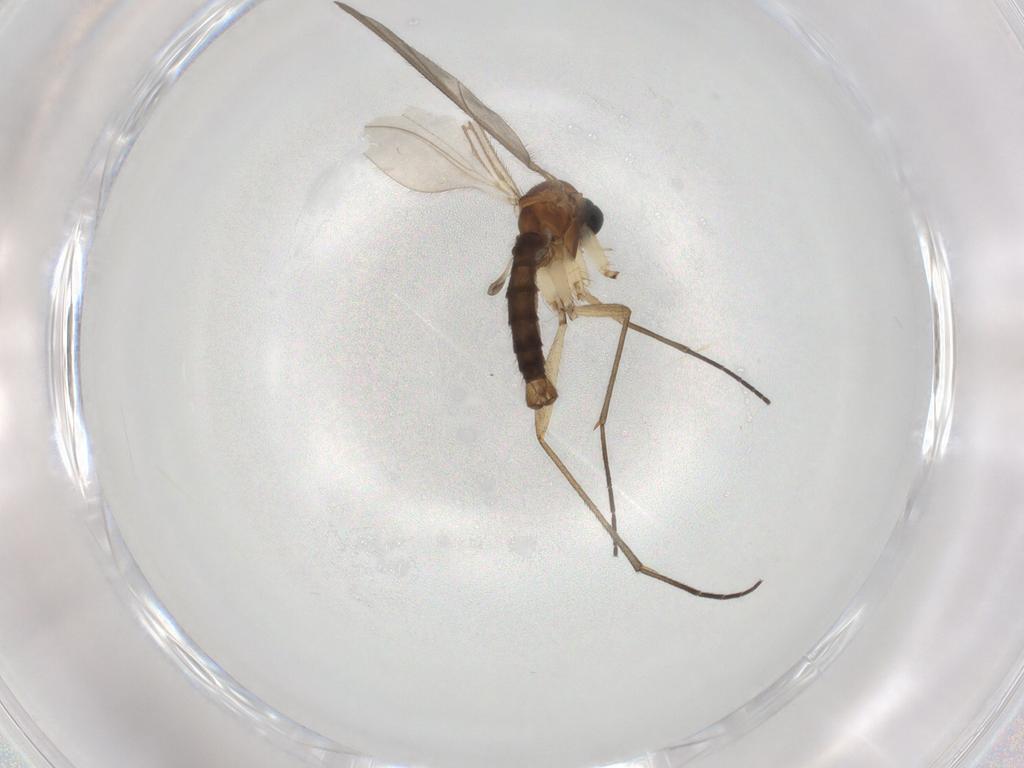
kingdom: Animalia
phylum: Arthropoda
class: Insecta
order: Diptera
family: Sciaridae
